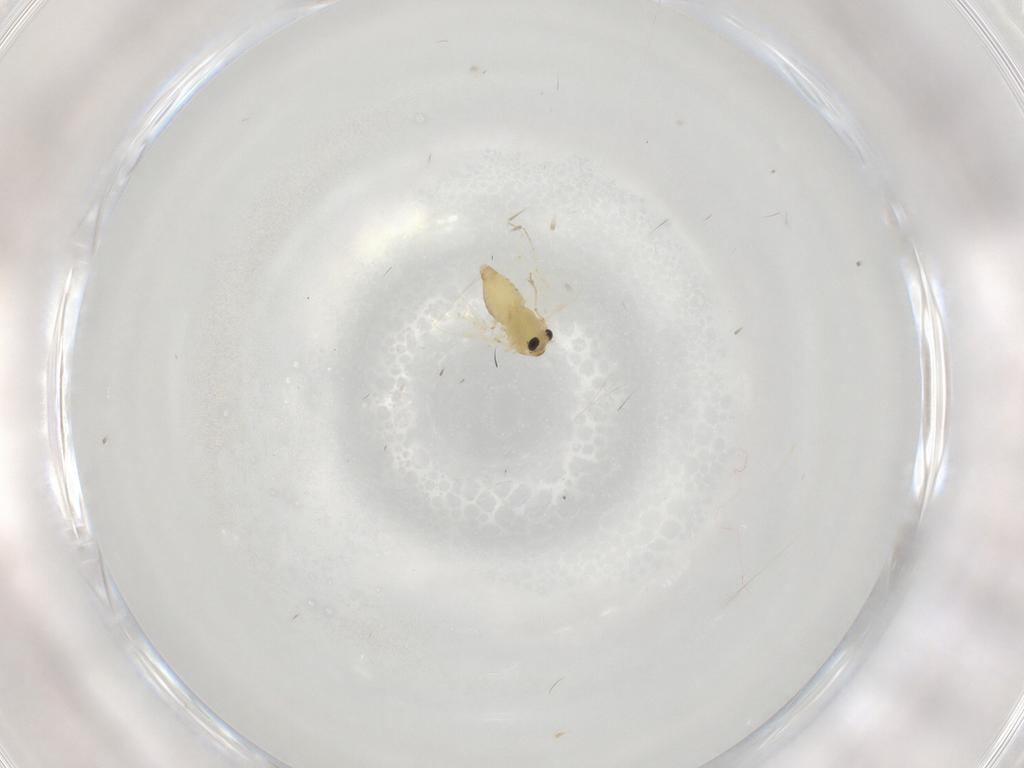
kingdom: Animalia
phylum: Arthropoda
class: Insecta
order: Diptera
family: Chironomidae
